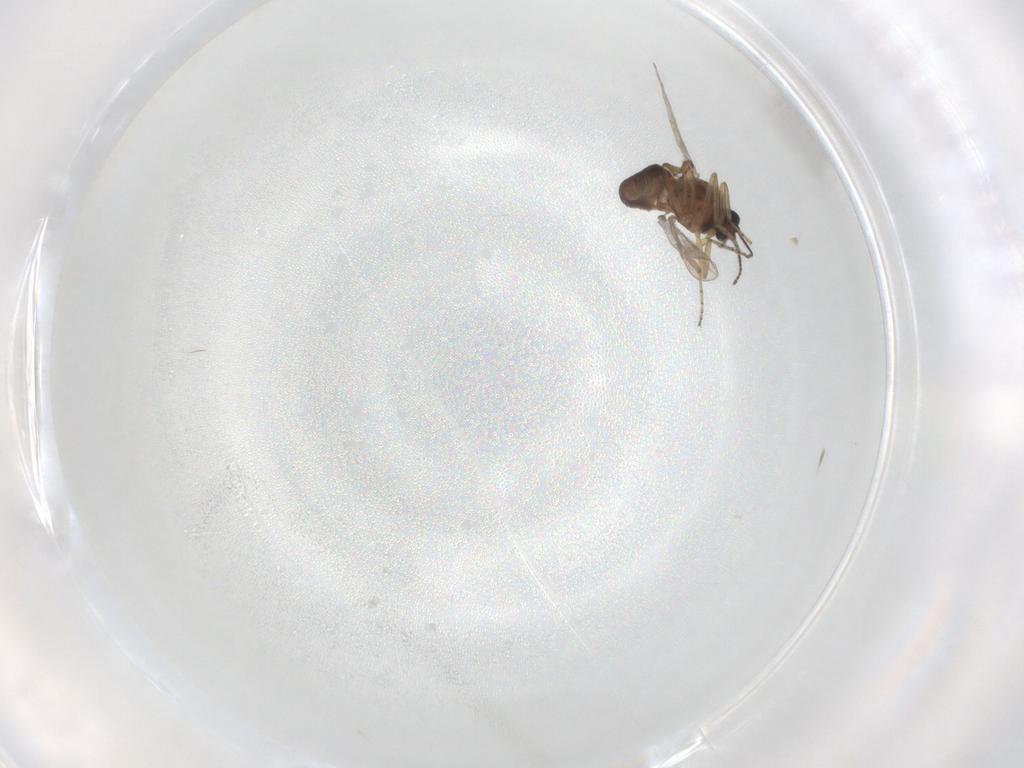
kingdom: Animalia
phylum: Arthropoda
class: Insecta
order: Diptera
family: Ceratopogonidae
